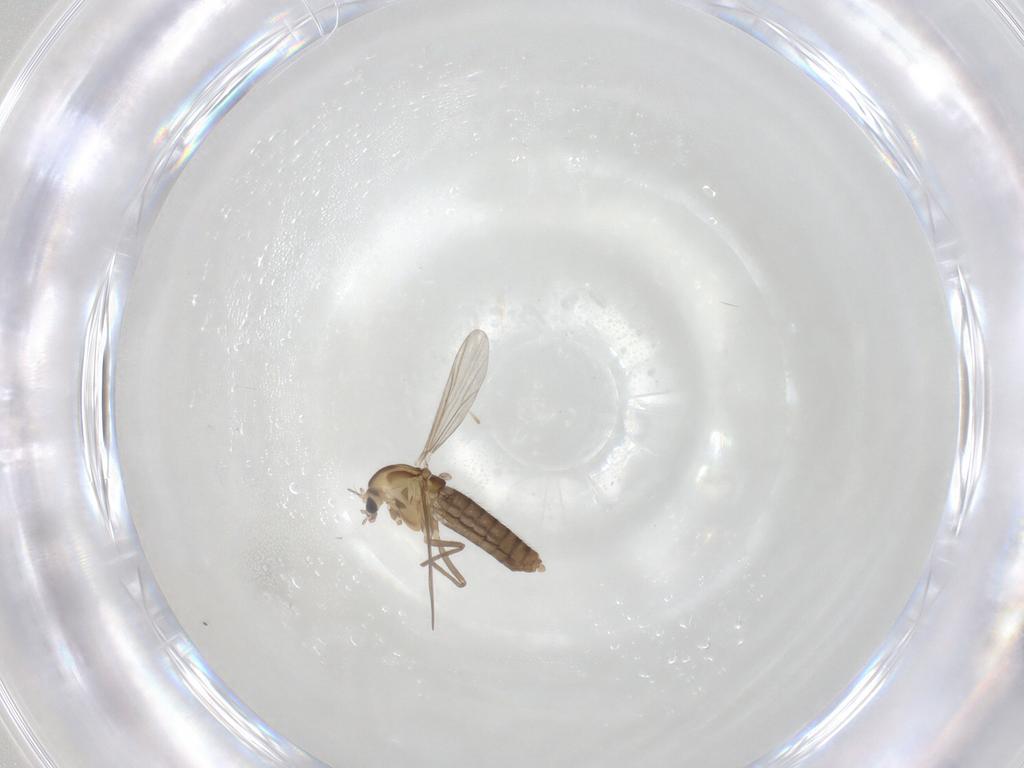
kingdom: Animalia
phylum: Arthropoda
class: Insecta
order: Diptera
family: Chironomidae
